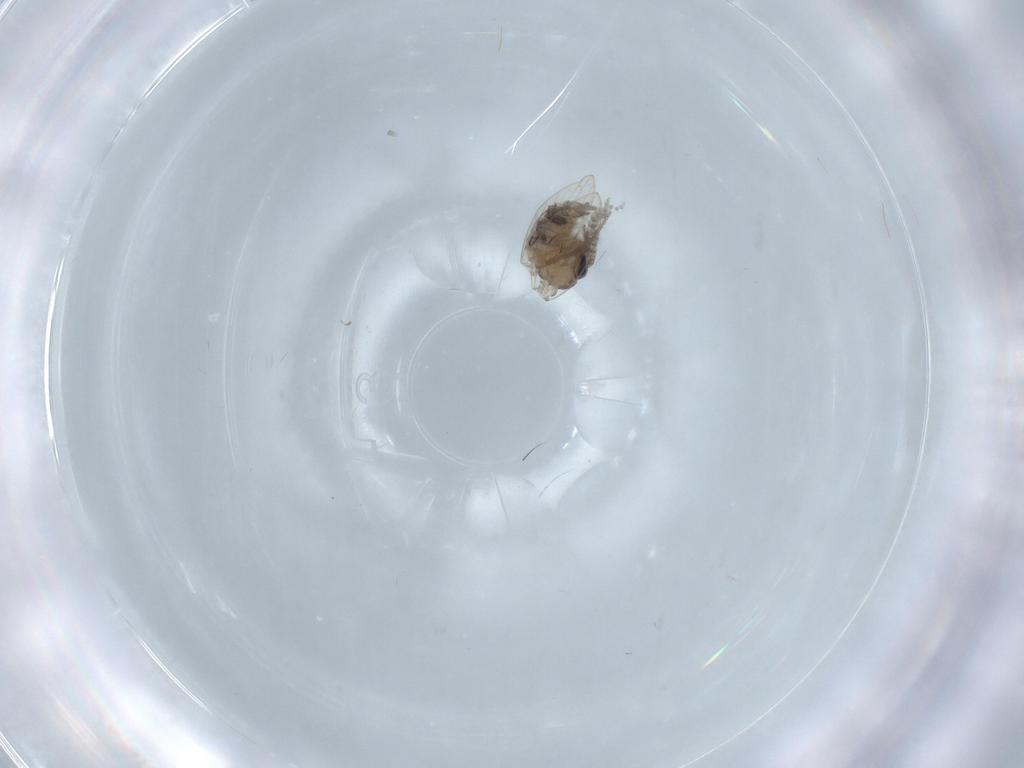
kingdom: Animalia
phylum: Arthropoda
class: Insecta
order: Diptera
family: Psychodidae
